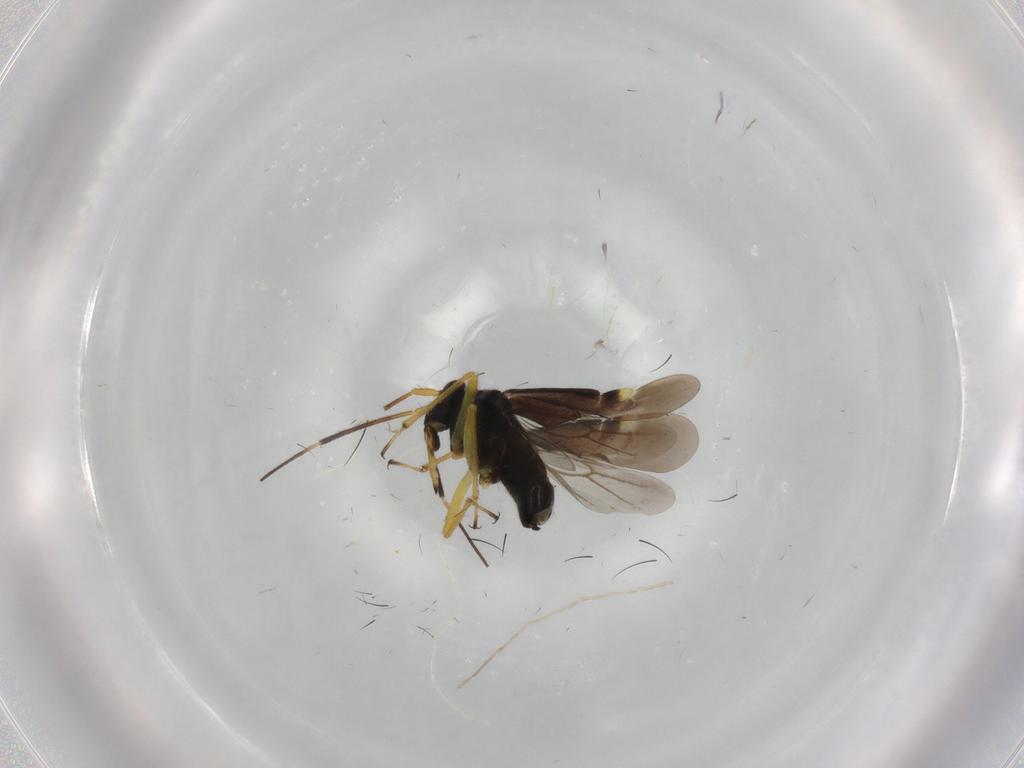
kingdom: Animalia
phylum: Arthropoda
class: Insecta
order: Hemiptera
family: Miridae
